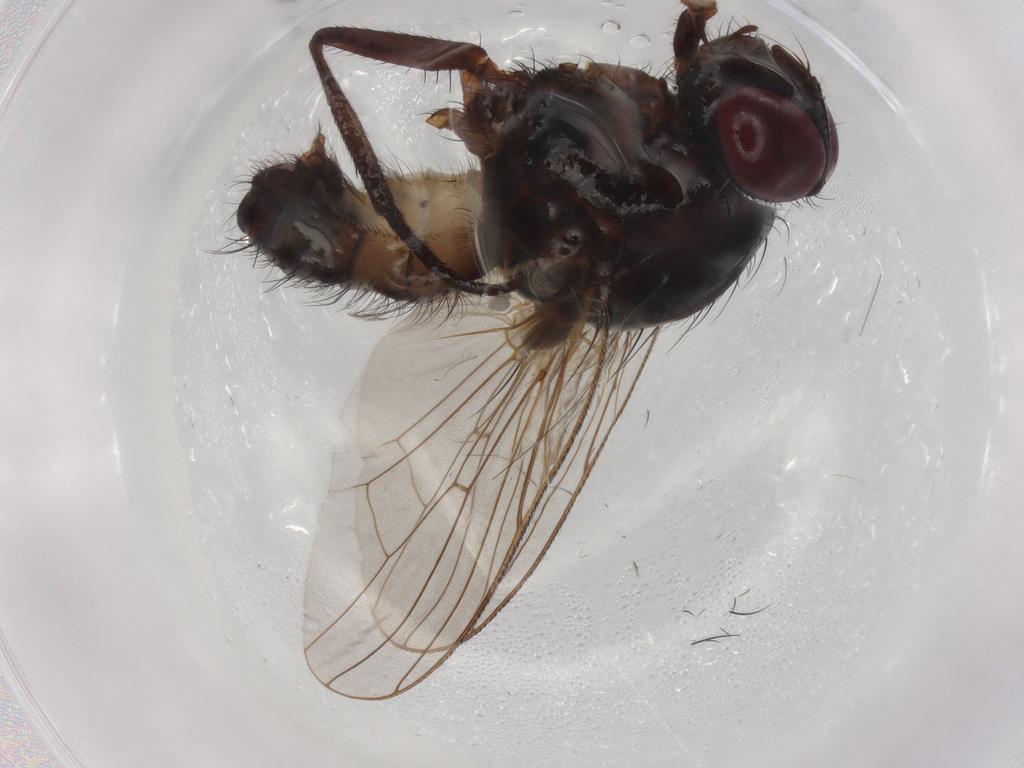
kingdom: Animalia
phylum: Arthropoda
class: Insecta
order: Diptera
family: Anthomyiidae
